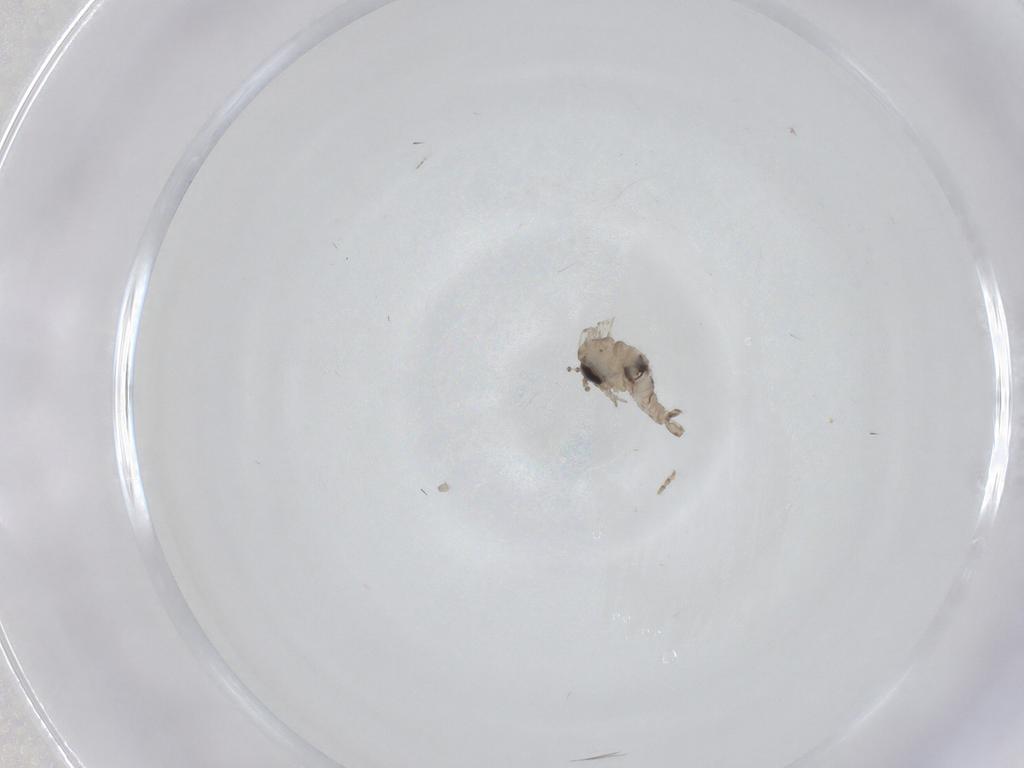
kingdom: Animalia
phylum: Arthropoda
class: Insecta
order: Diptera
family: Psychodidae
